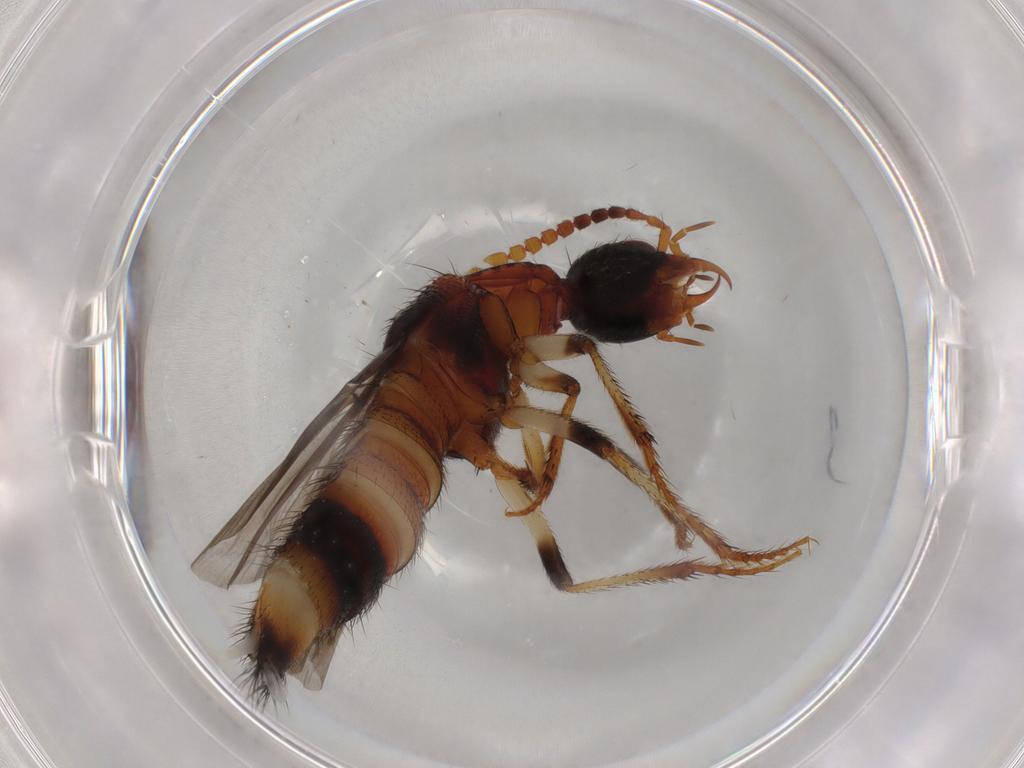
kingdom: Animalia
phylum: Arthropoda
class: Insecta
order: Coleoptera
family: Staphylinidae
